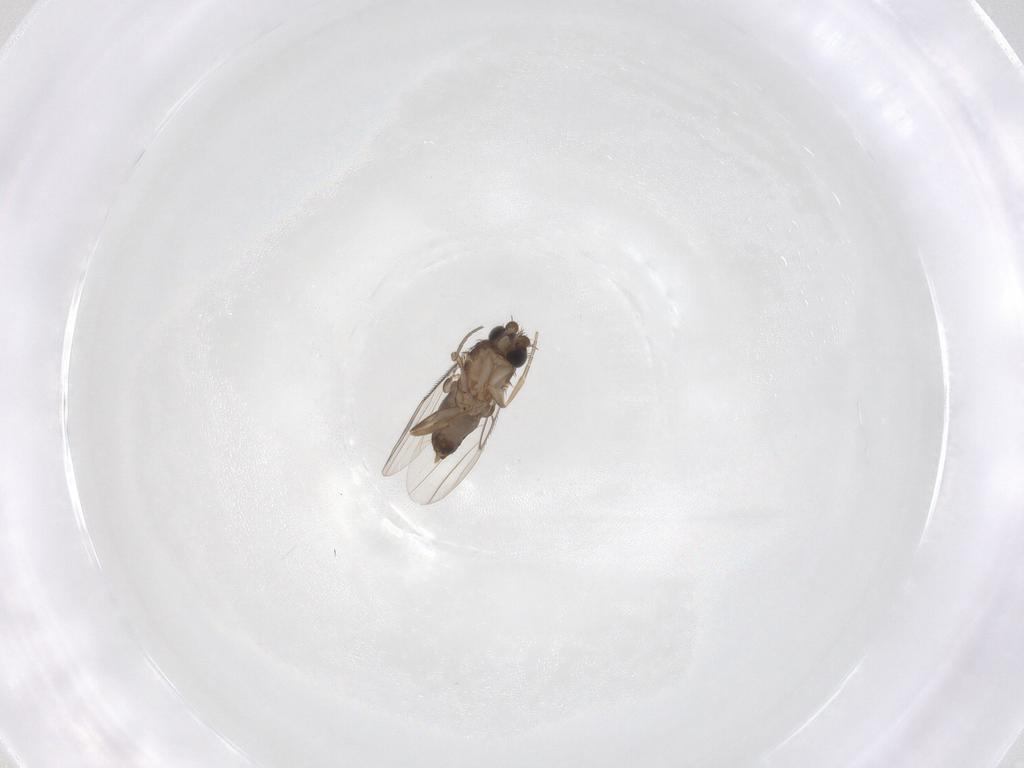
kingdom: Animalia
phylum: Arthropoda
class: Insecta
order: Diptera
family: Phoridae
